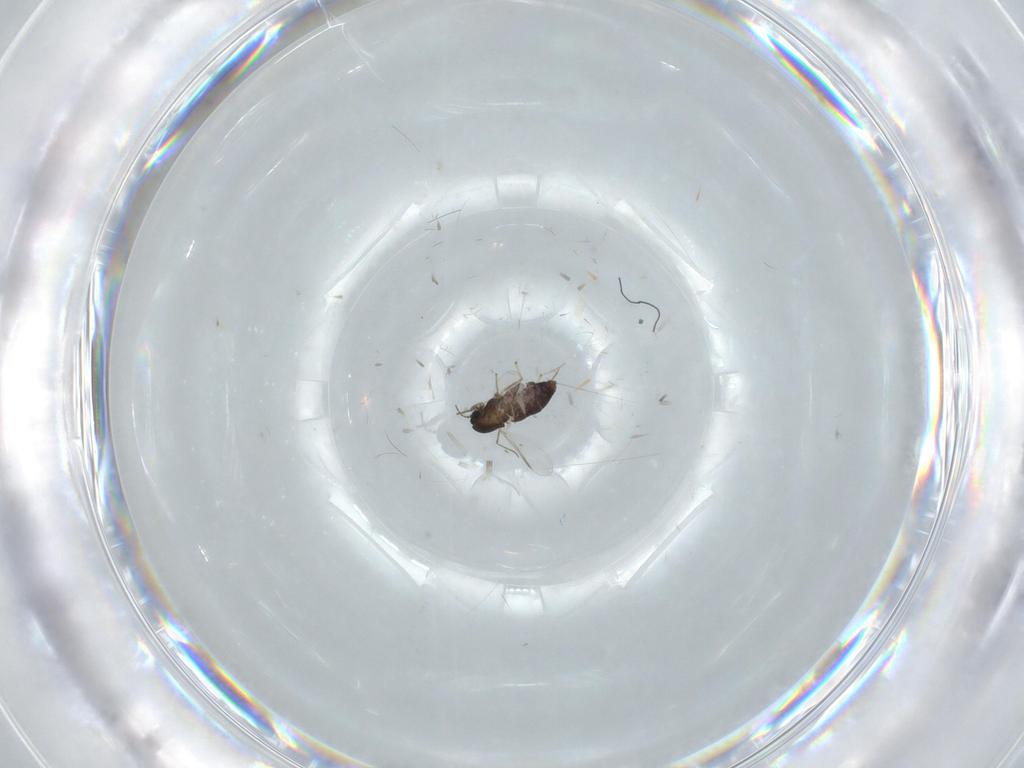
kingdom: Animalia
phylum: Arthropoda
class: Insecta
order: Diptera
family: Chironomidae
